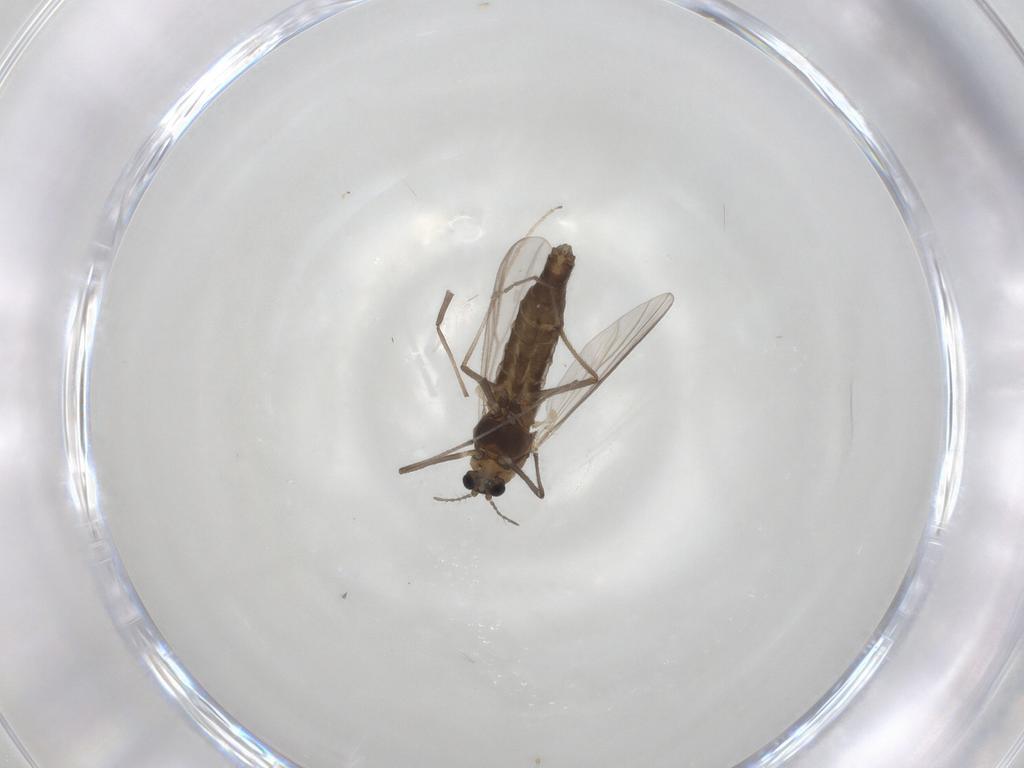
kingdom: Animalia
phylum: Arthropoda
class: Insecta
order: Diptera
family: Chironomidae
